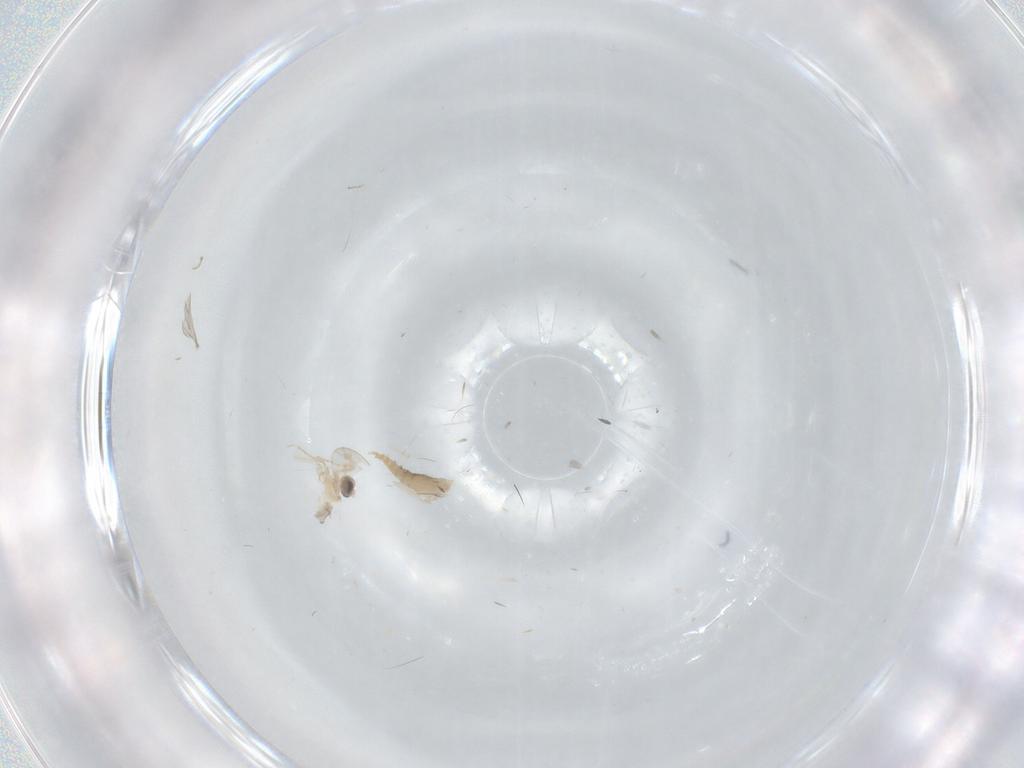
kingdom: Animalia
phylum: Arthropoda
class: Insecta
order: Diptera
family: Cecidomyiidae
